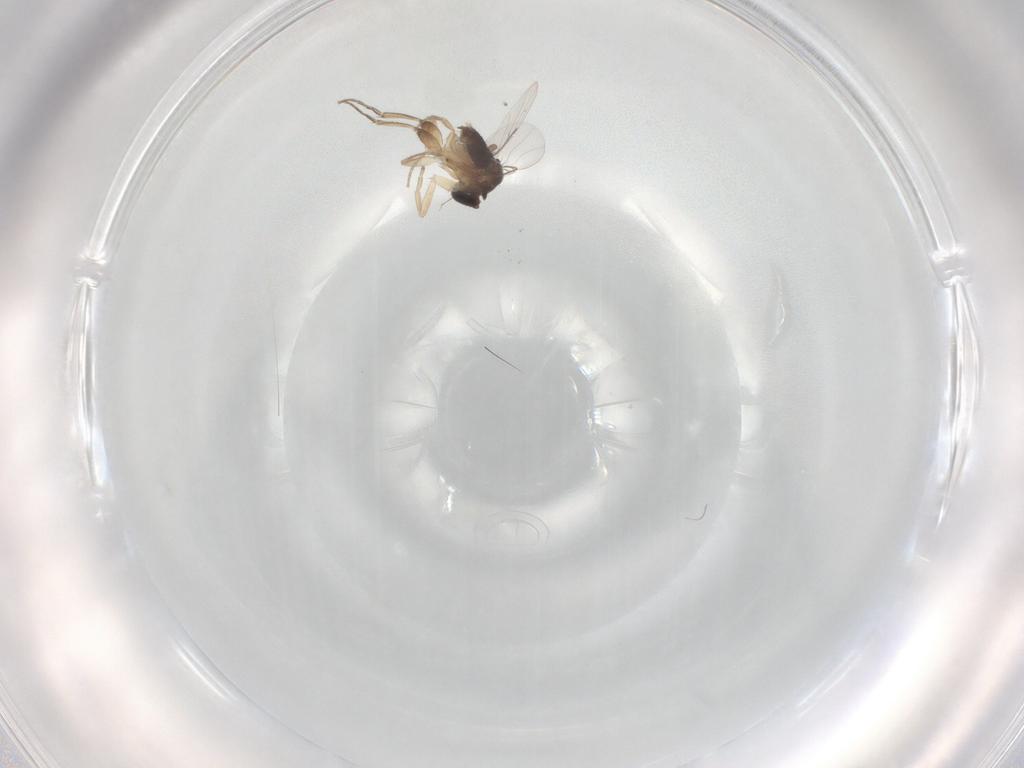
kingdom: Animalia
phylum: Arthropoda
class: Insecta
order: Diptera
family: Phoridae
